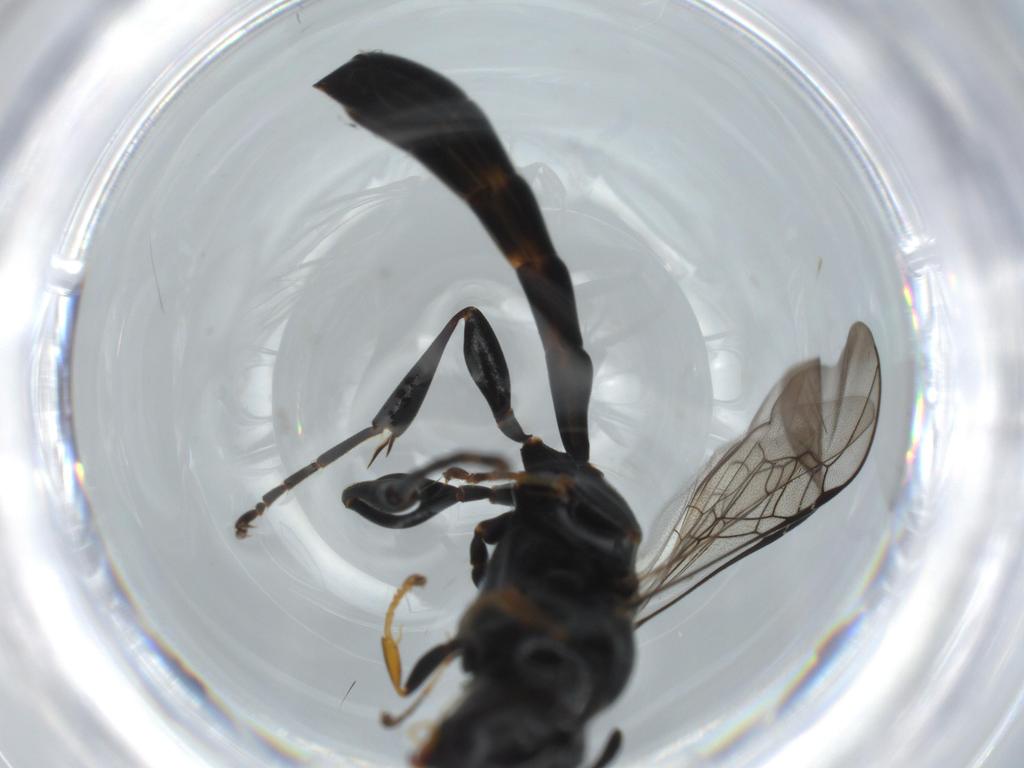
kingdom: Animalia
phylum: Arthropoda
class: Insecta
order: Hymenoptera
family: Crabronidae
